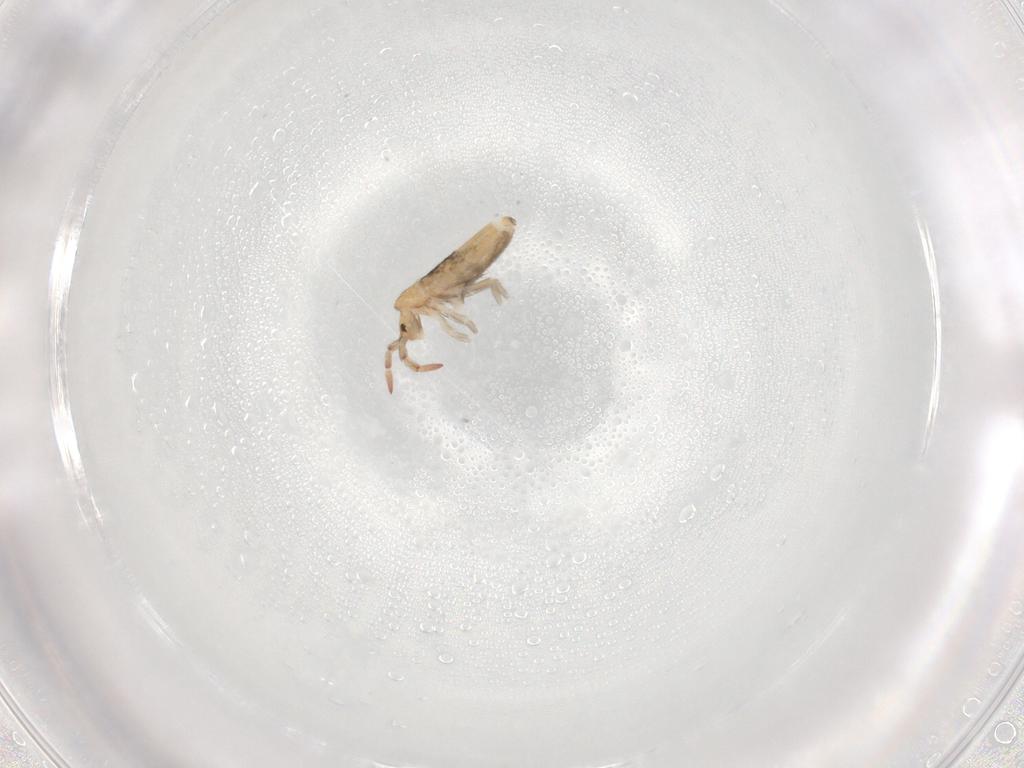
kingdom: Animalia
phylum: Arthropoda
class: Collembola
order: Entomobryomorpha
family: Entomobryidae
